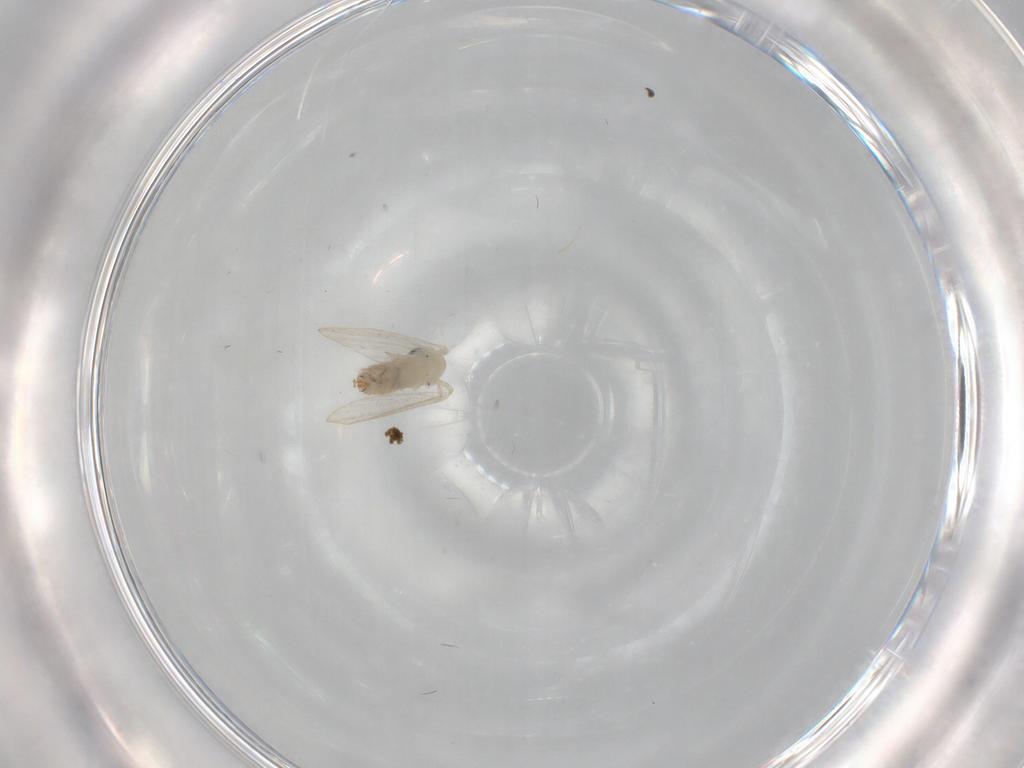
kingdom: Animalia
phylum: Arthropoda
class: Insecta
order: Diptera
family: Psychodidae
